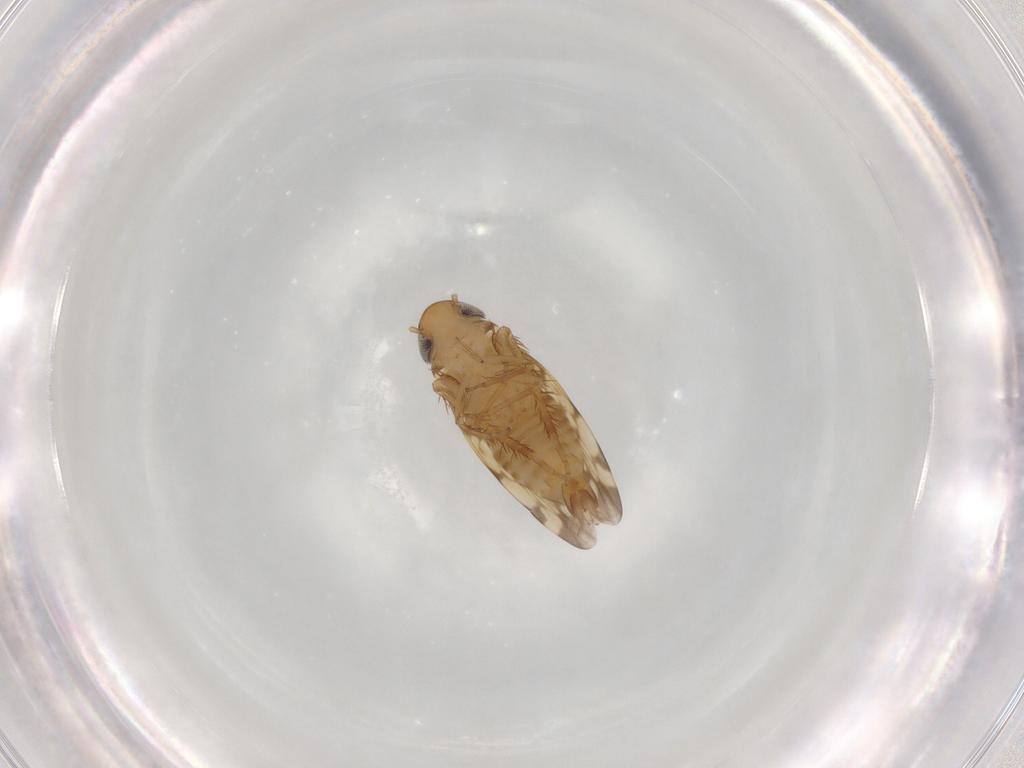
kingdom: Animalia
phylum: Arthropoda
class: Insecta
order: Hemiptera
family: Cicadellidae
